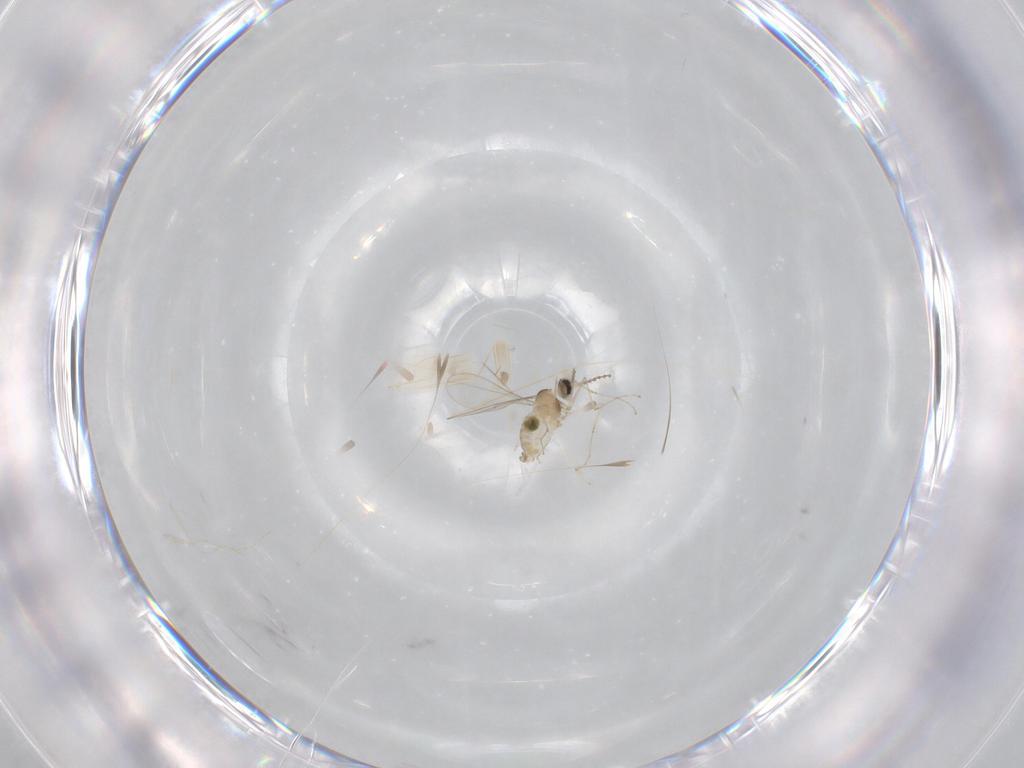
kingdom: Animalia
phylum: Arthropoda
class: Insecta
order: Diptera
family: Cecidomyiidae
